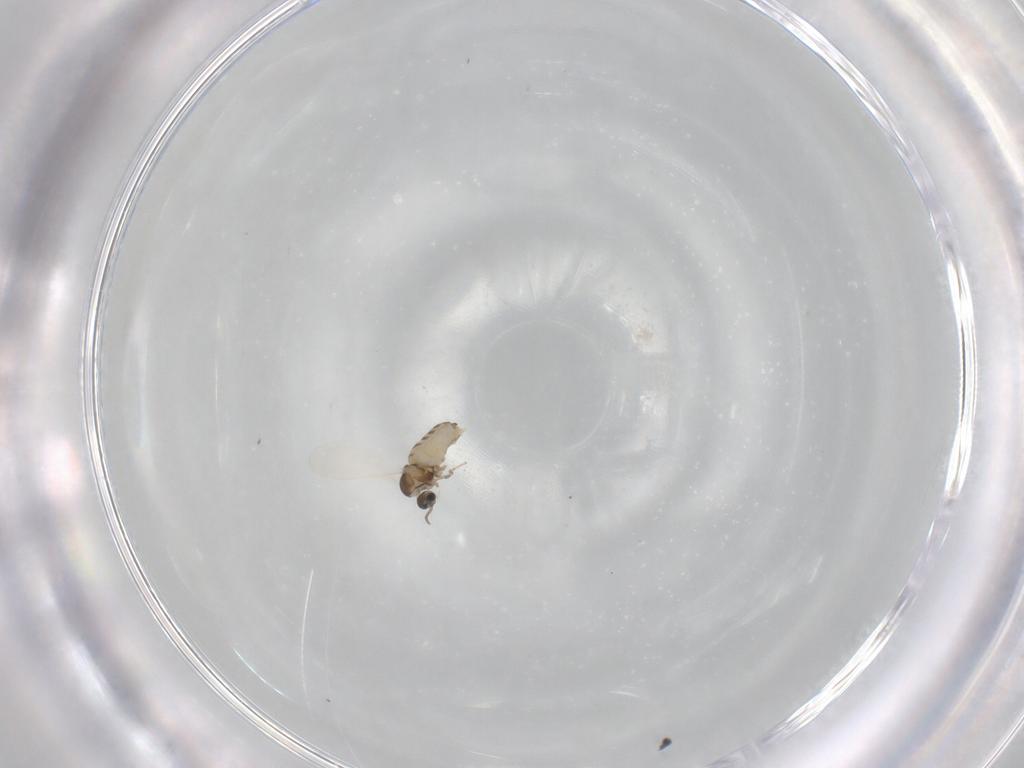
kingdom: Animalia
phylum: Arthropoda
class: Insecta
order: Diptera
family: Cecidomyiidae
